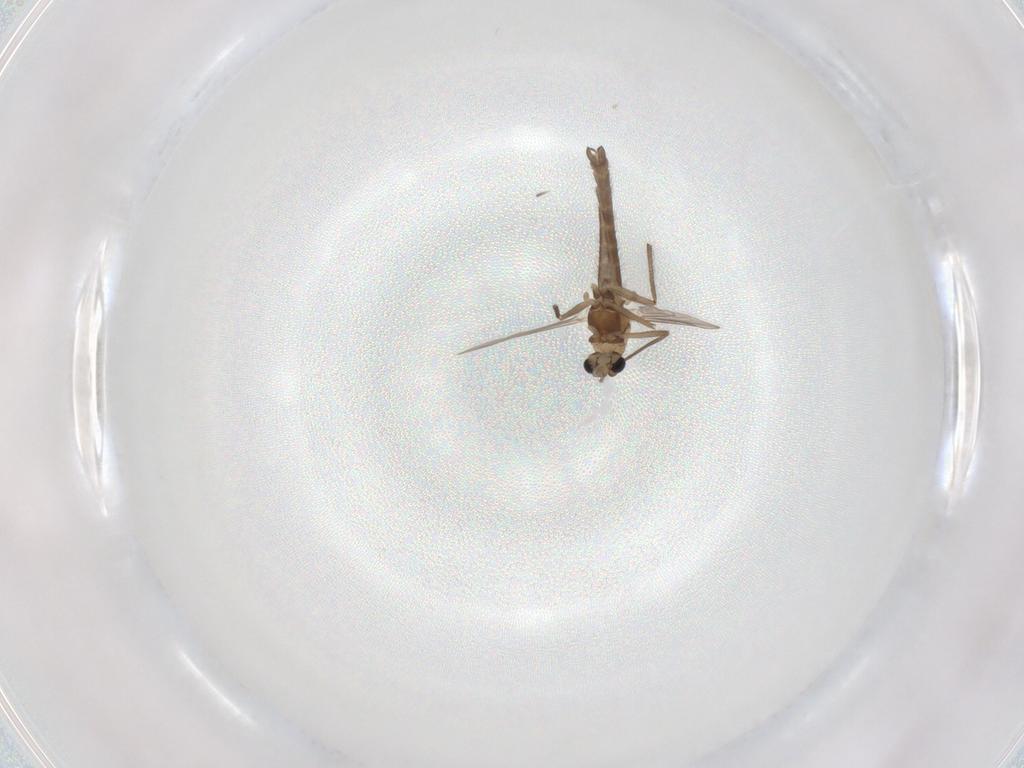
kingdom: Animalia
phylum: Arthropoda
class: Insecta
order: Diptera
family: Chironomidae
